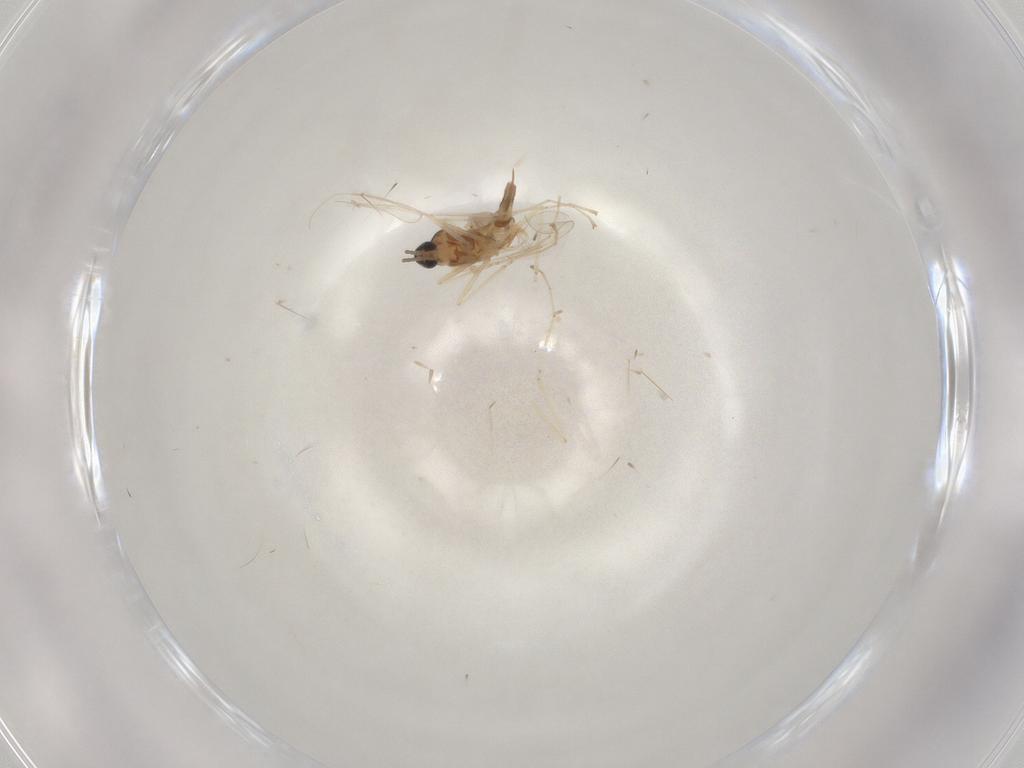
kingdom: Animalia
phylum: Arthropoda
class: Insecta
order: Diptera
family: Cecidomyiidae
